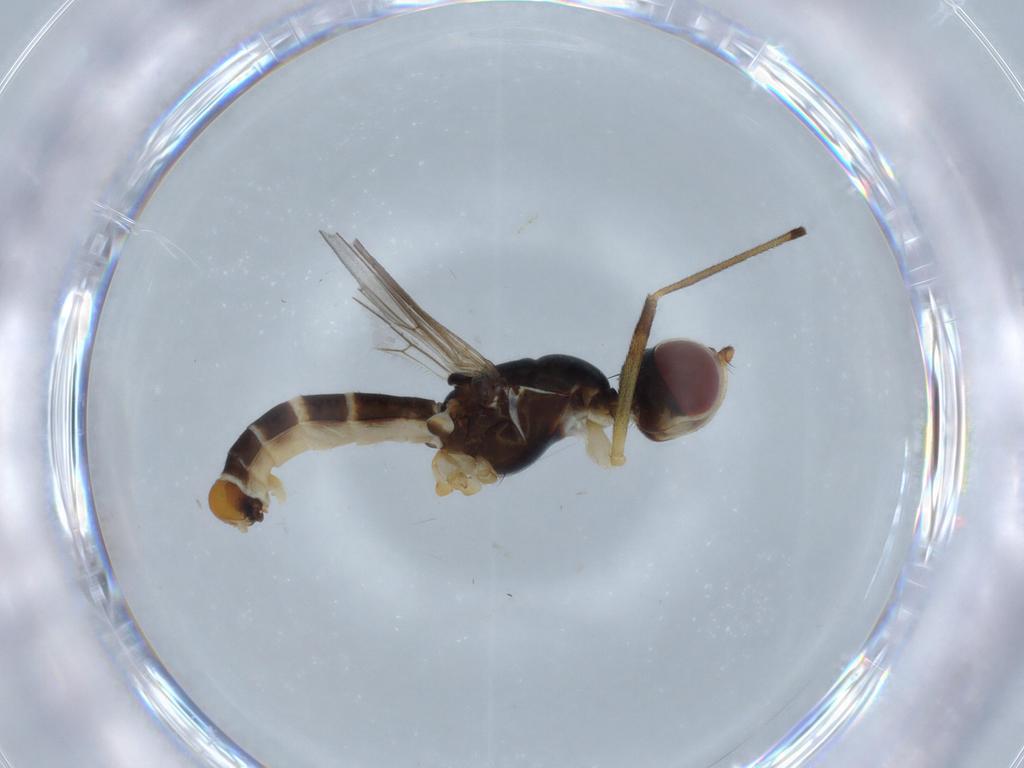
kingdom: Animalia
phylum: Arthropoda
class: Insecta
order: Diptera
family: Micropezidae
